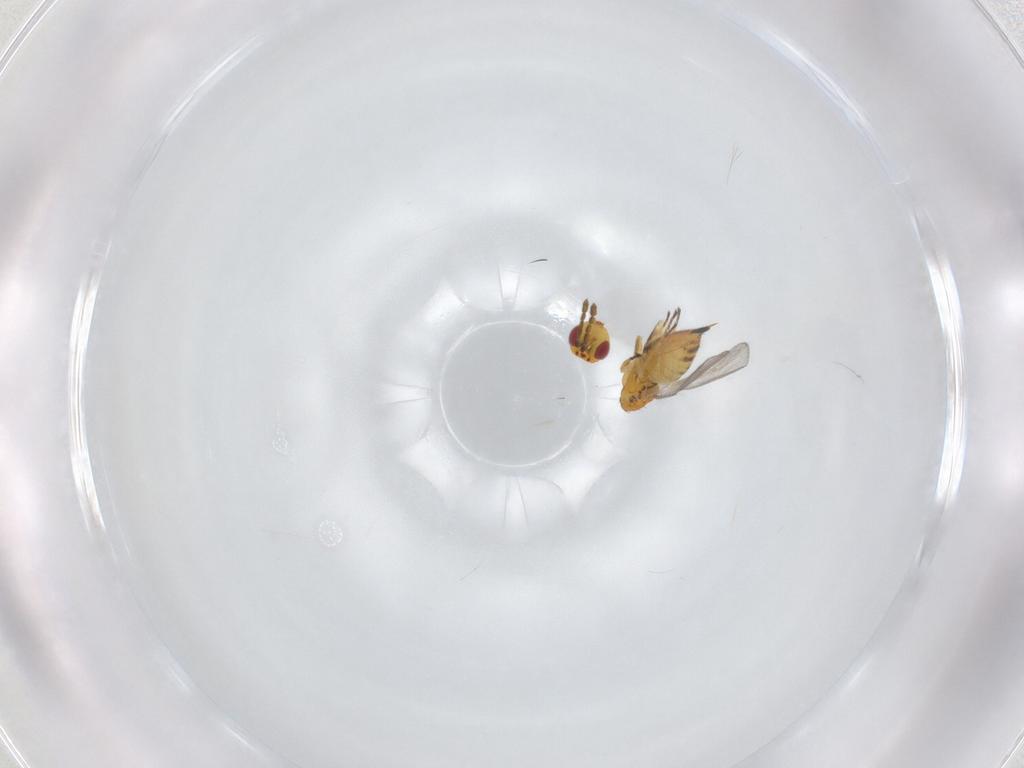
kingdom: Animalia
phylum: Arthropoda
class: Insecta
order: Hymenoptera
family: Eulophidae
